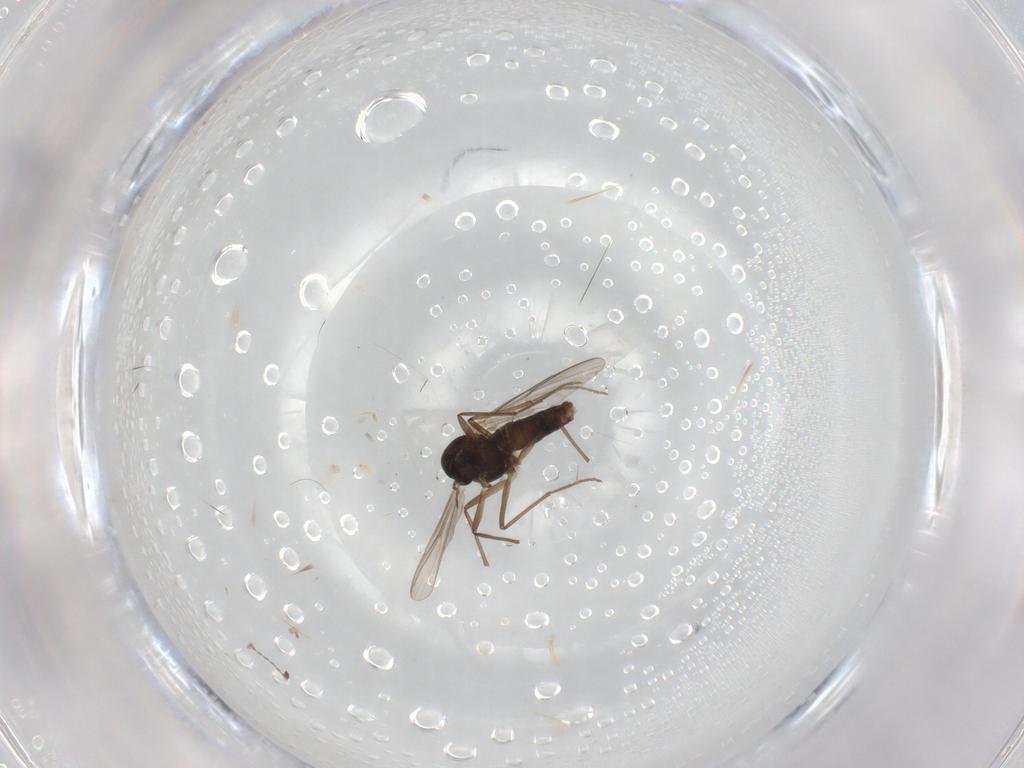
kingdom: Animalia
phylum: Arthropoda
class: Insecta
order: Diptera
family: Chironomidae
